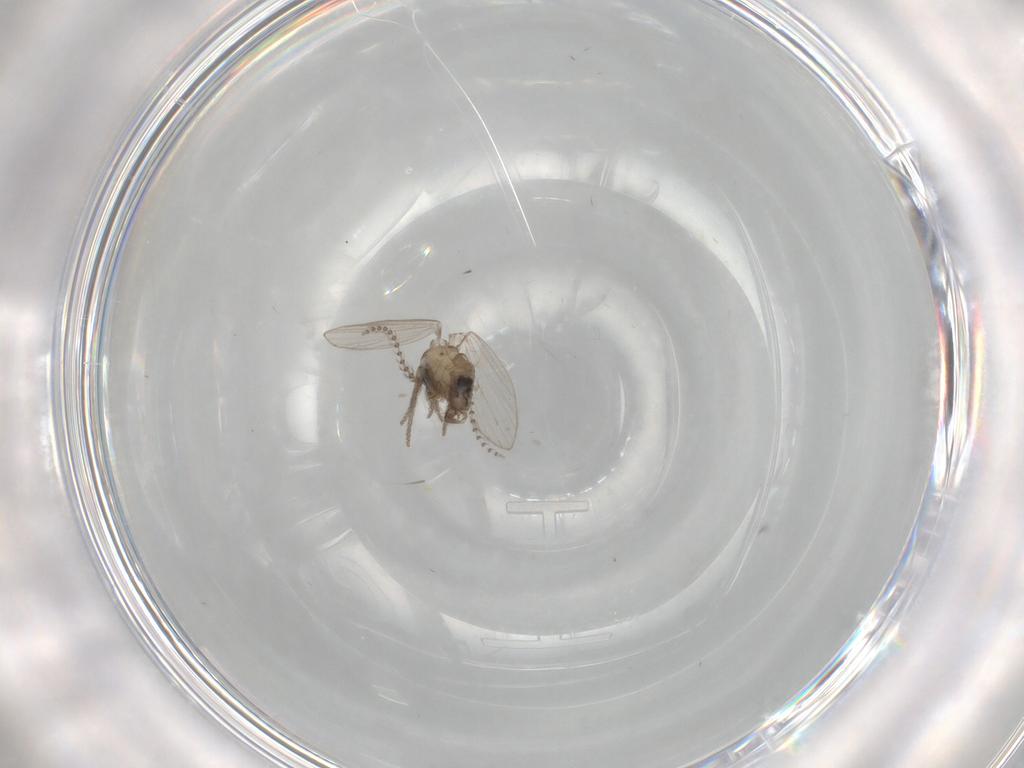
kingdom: Animalia
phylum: Arthropoda
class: Insecta
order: Diptera
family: Psychodidae
